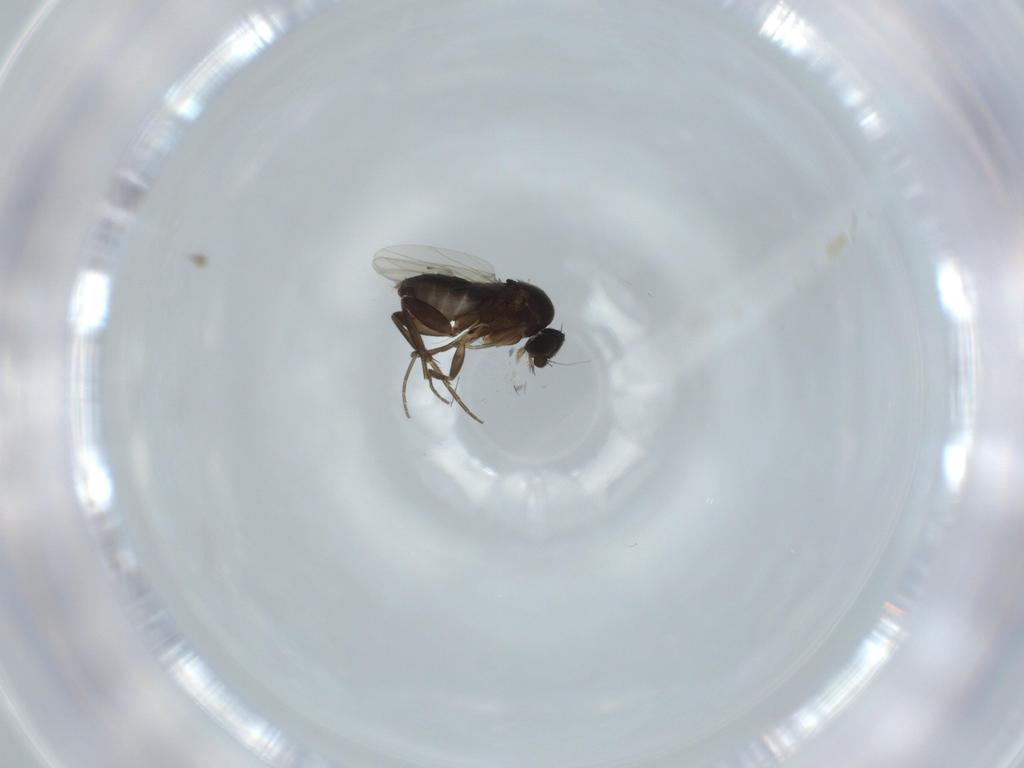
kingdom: Animalia
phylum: Arthropoda
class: Insecta
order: Diptera
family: Phoridae
